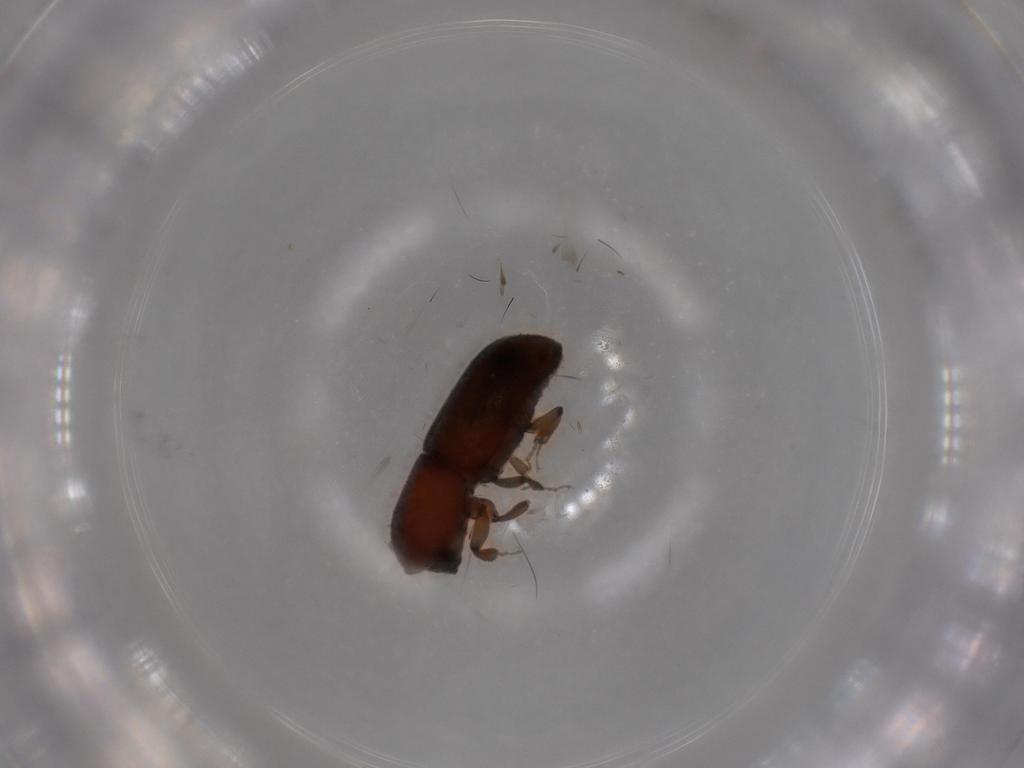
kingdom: Animalia
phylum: Arthropoda
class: Insecta
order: Coleoptera
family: Curculionidae
